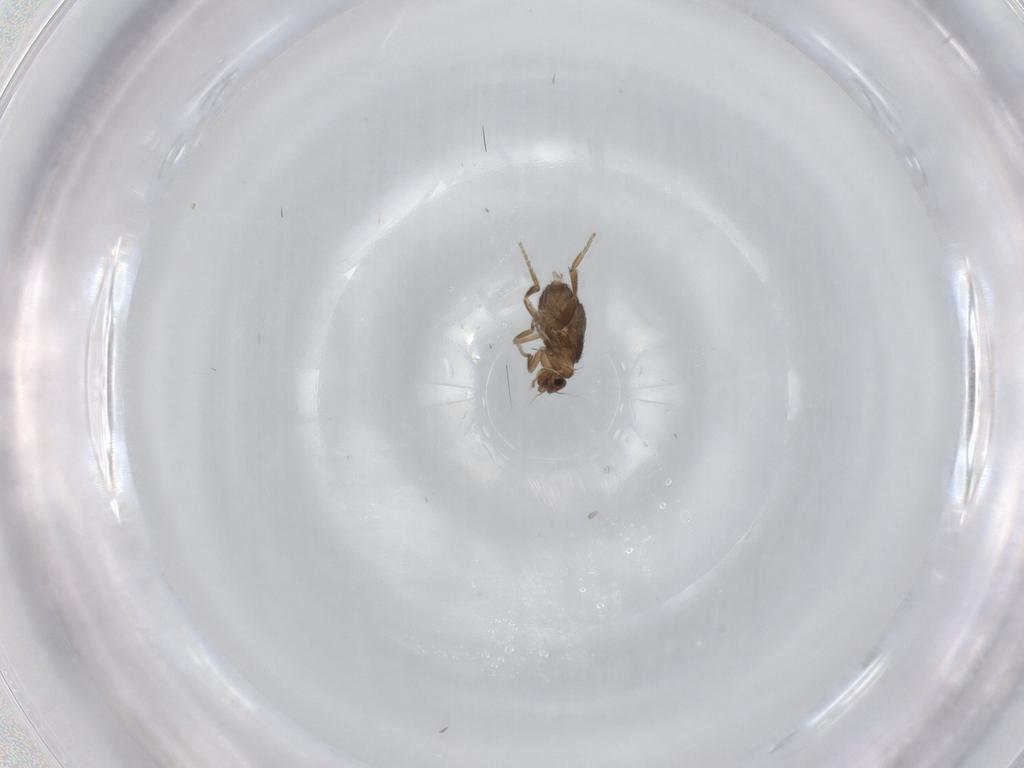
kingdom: Animalia
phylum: Arthropoda
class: Insecta
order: Diptera
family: Phoridae
